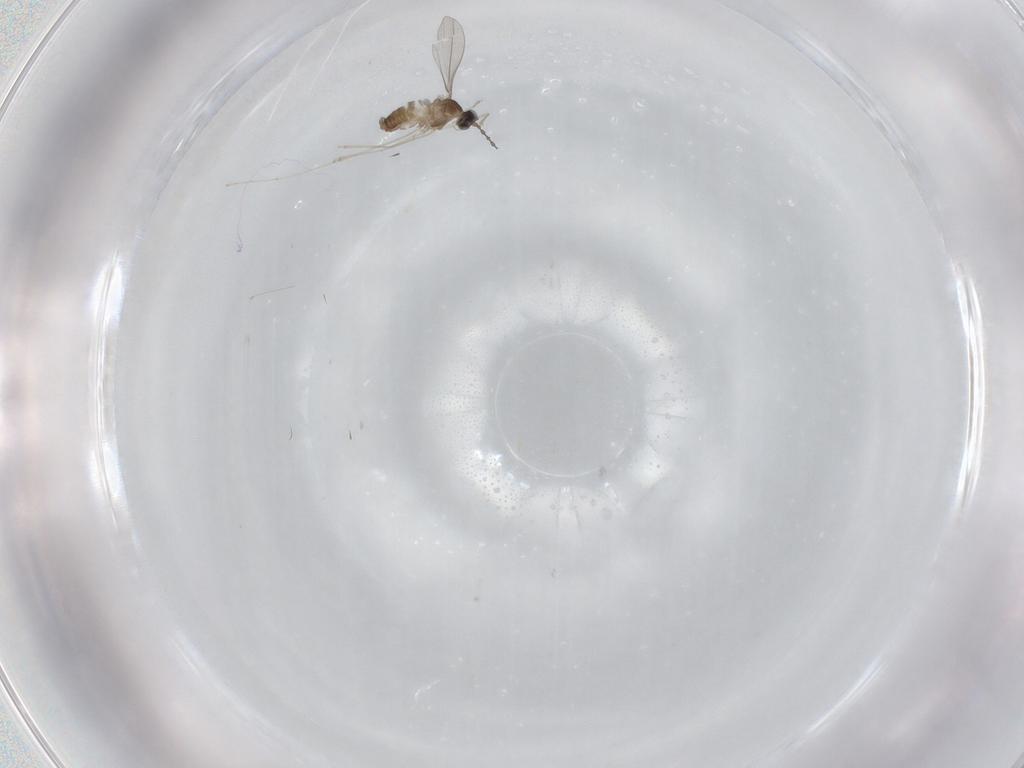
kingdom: Animalia
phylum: Arthropoda
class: Insecta
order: Diptera
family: Cecidomyiidae
